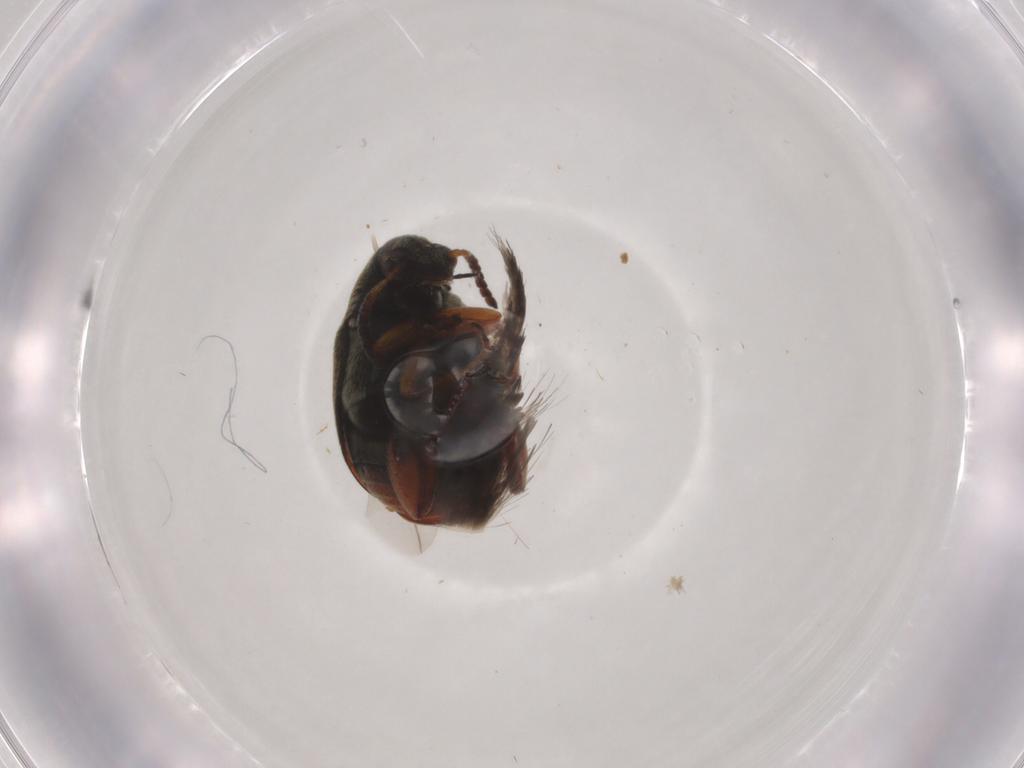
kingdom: Animalia
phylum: Arthropoda
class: Insecta
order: Coleoptera
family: Chrysomelidae
